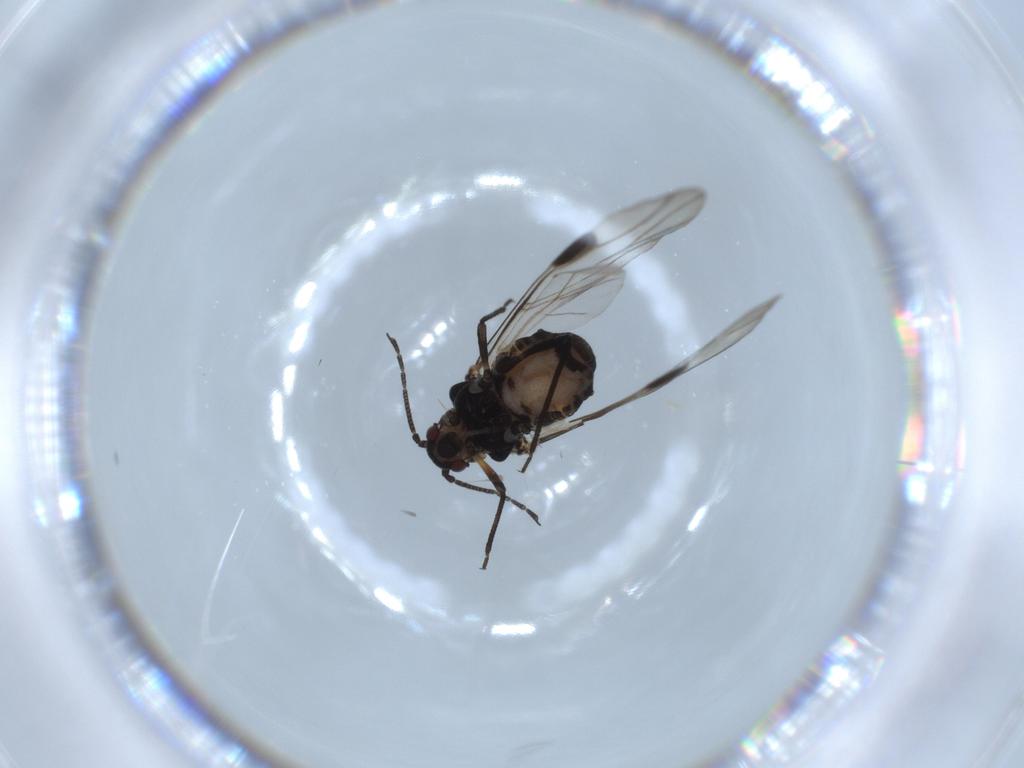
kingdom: Animalia
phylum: Arthropoda
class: Insecta
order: Hemiptera
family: Aphididae
